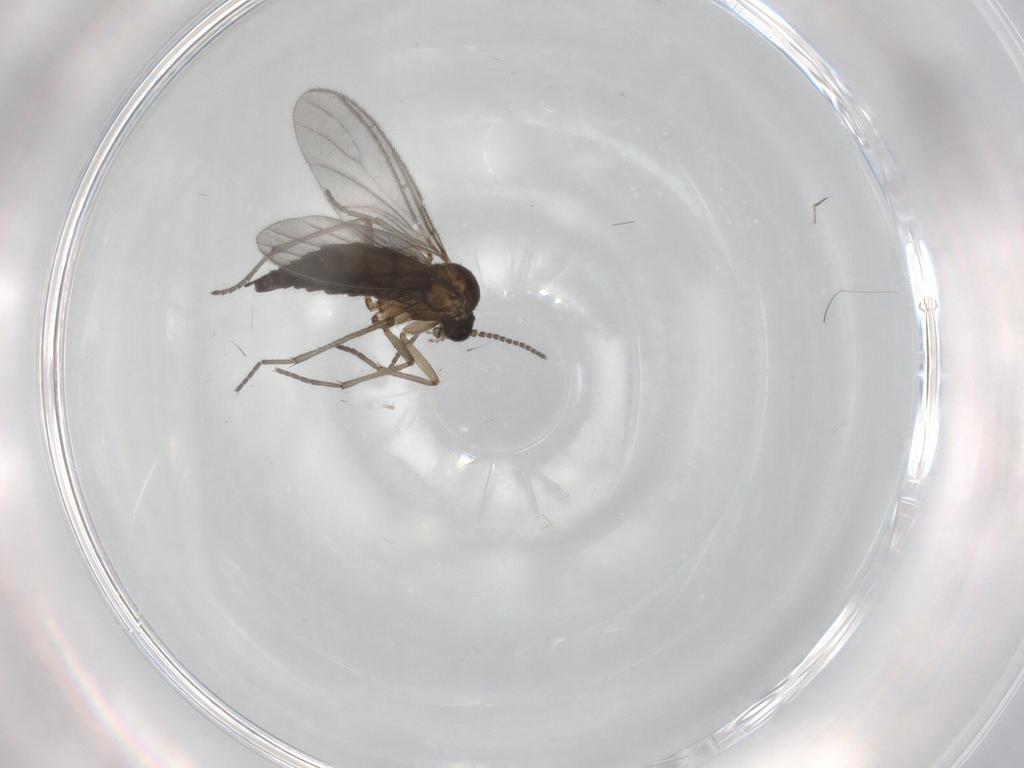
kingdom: Animalia
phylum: Arthropoda
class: Insecta
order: Diptera
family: Sciaridae
